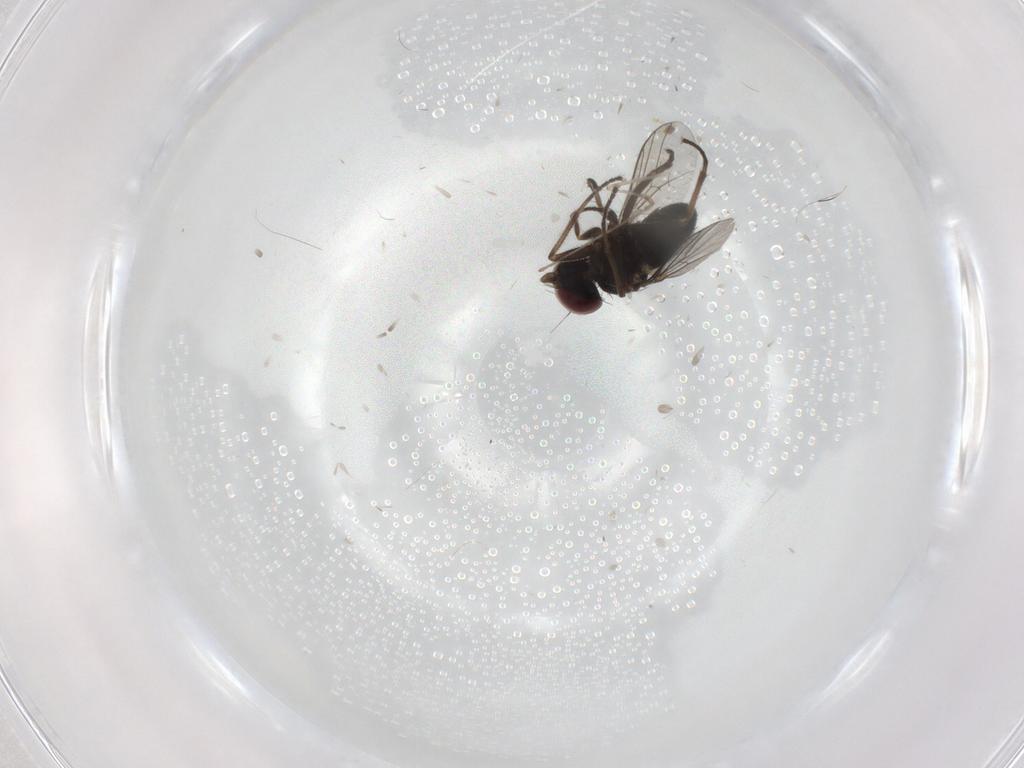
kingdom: Animalia
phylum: Arthropoda
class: Insecta
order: Diptera
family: Dolichopodidae
